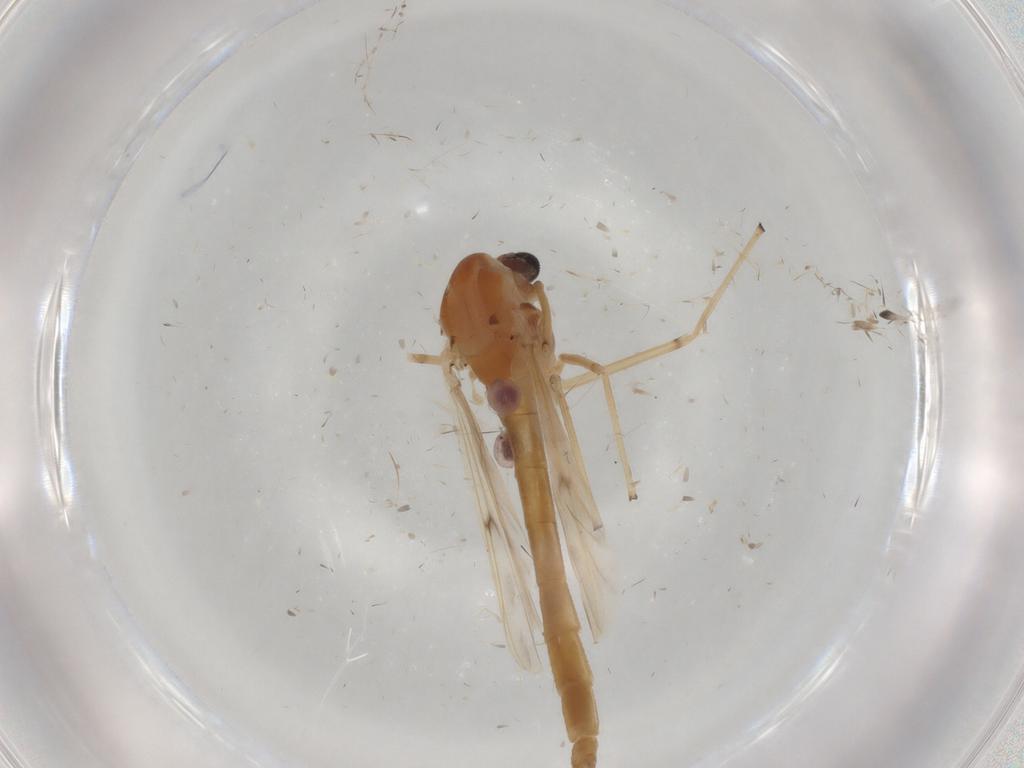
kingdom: Animalia
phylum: Arthropoda
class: Insecta
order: Diptera
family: Chironomidae
